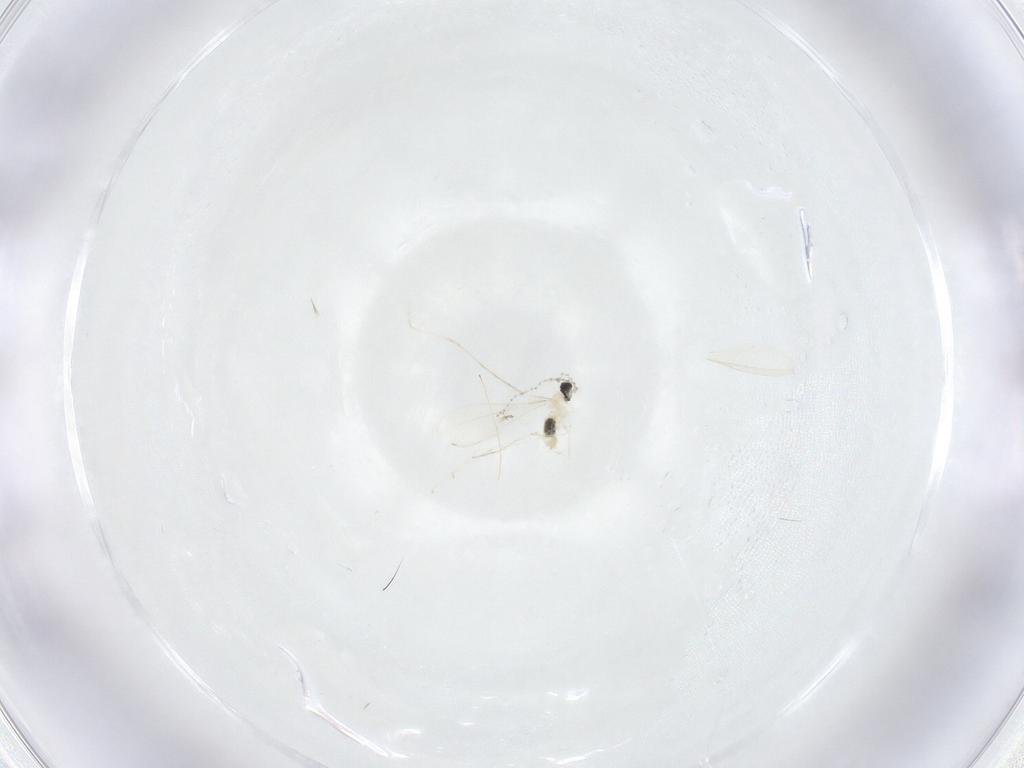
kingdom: Animalia
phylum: Arthropoda
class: Insecta
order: Diptera
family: Cecidomyiidae
